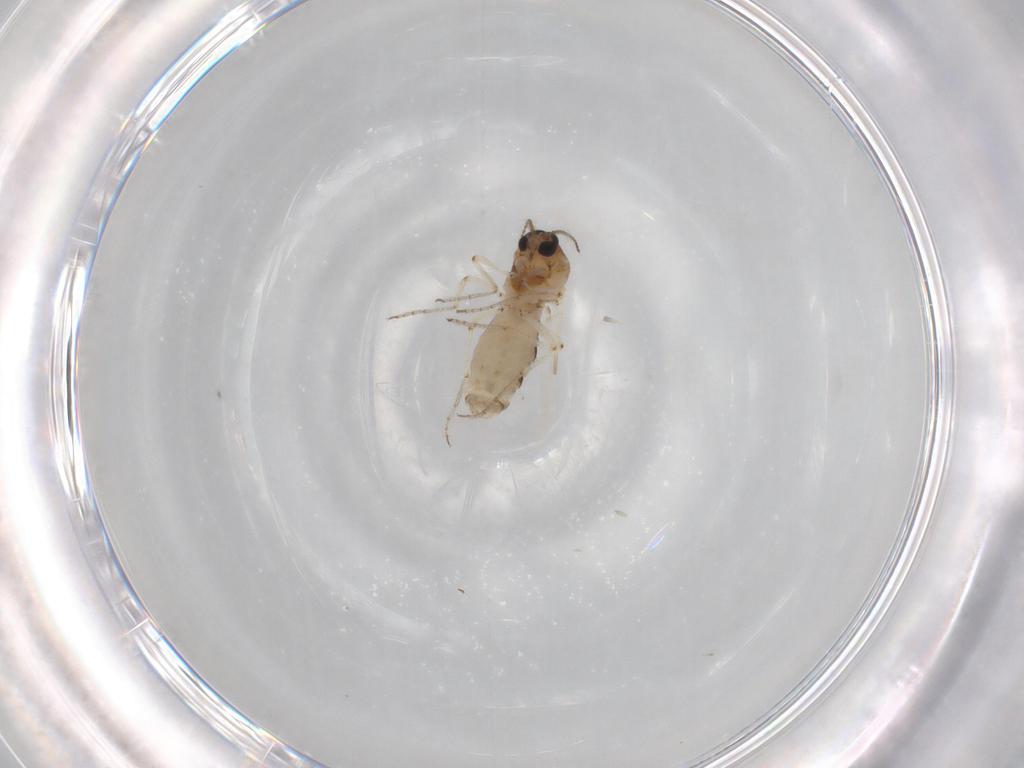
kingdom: Animalia
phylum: Arthropoda
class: Insecta
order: Diptera
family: Ceratopogonidae
